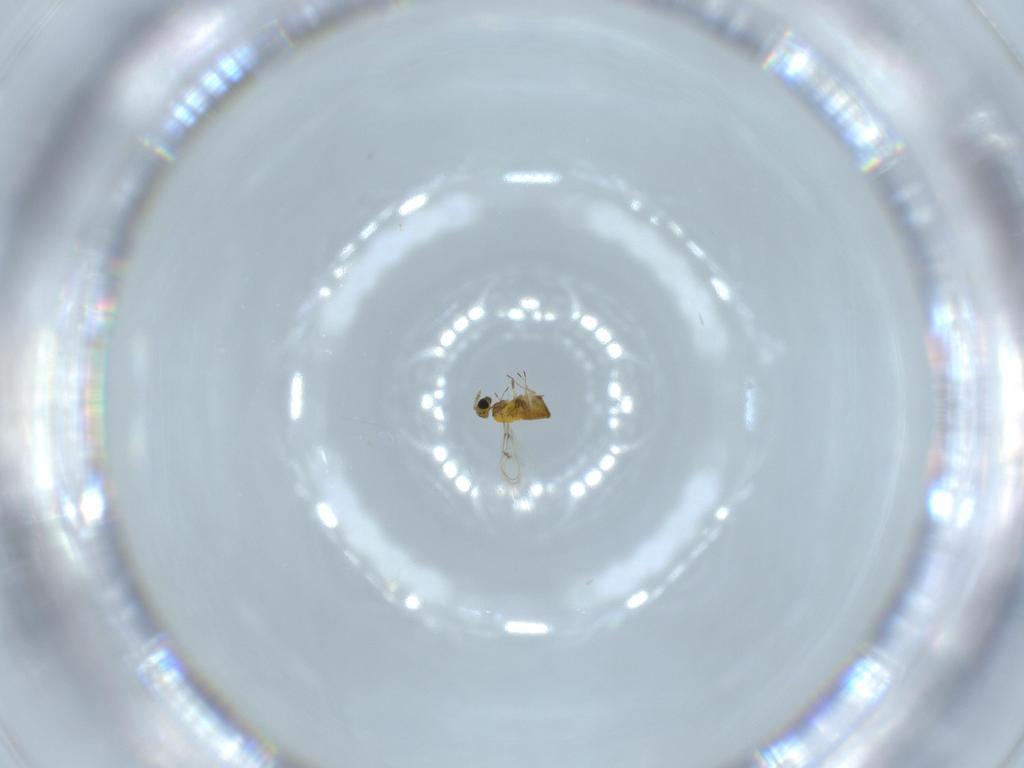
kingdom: Animalia
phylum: Arthropoda
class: Insecta
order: Hymenoptera
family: Trichogrammatidae
